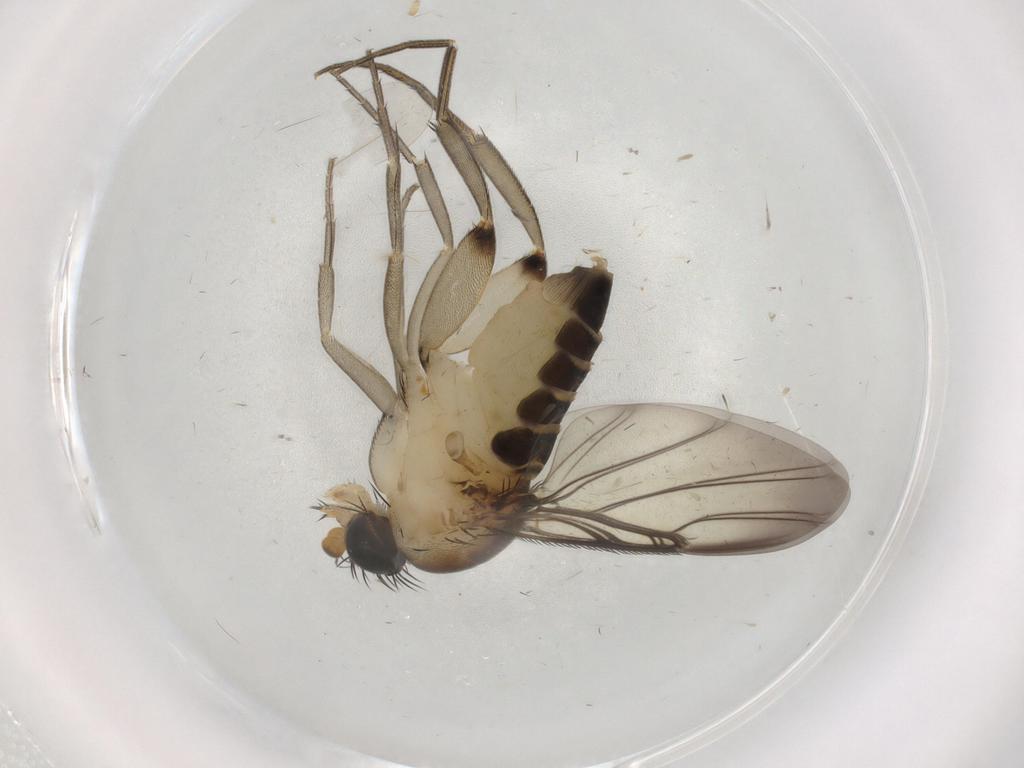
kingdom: Animalia
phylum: Arthropoda
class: Insecta
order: Diptera
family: Phoridae
